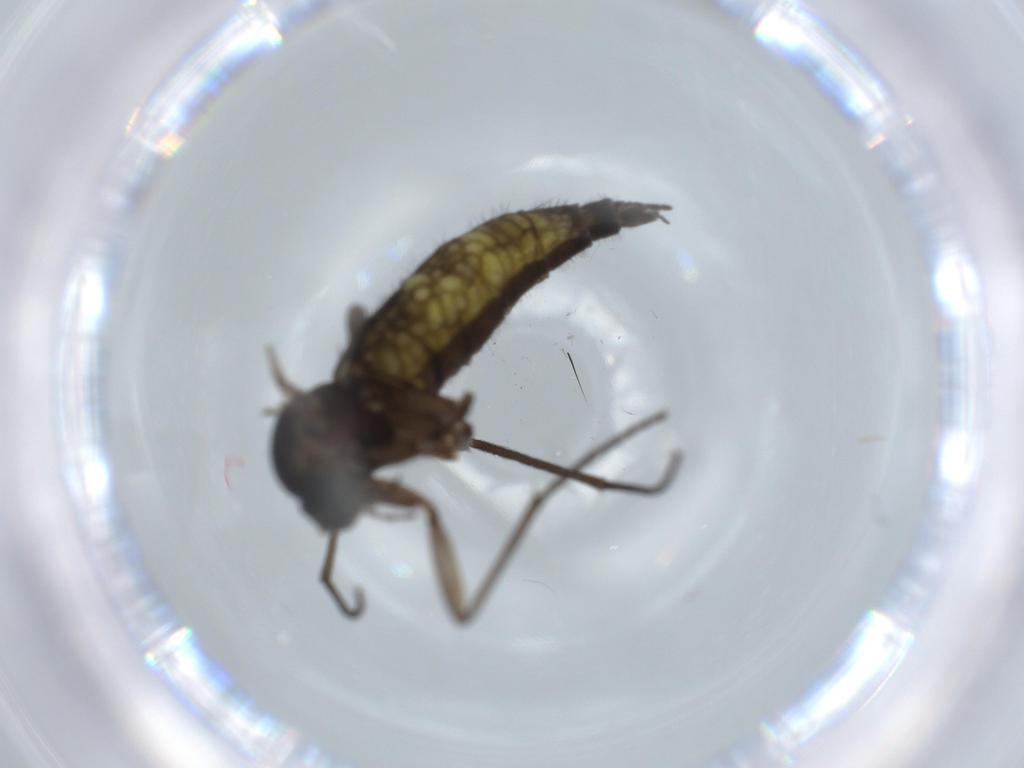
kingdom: Animalia
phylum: Arthropoda
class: Insecta
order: Diptera
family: Sciaridae
